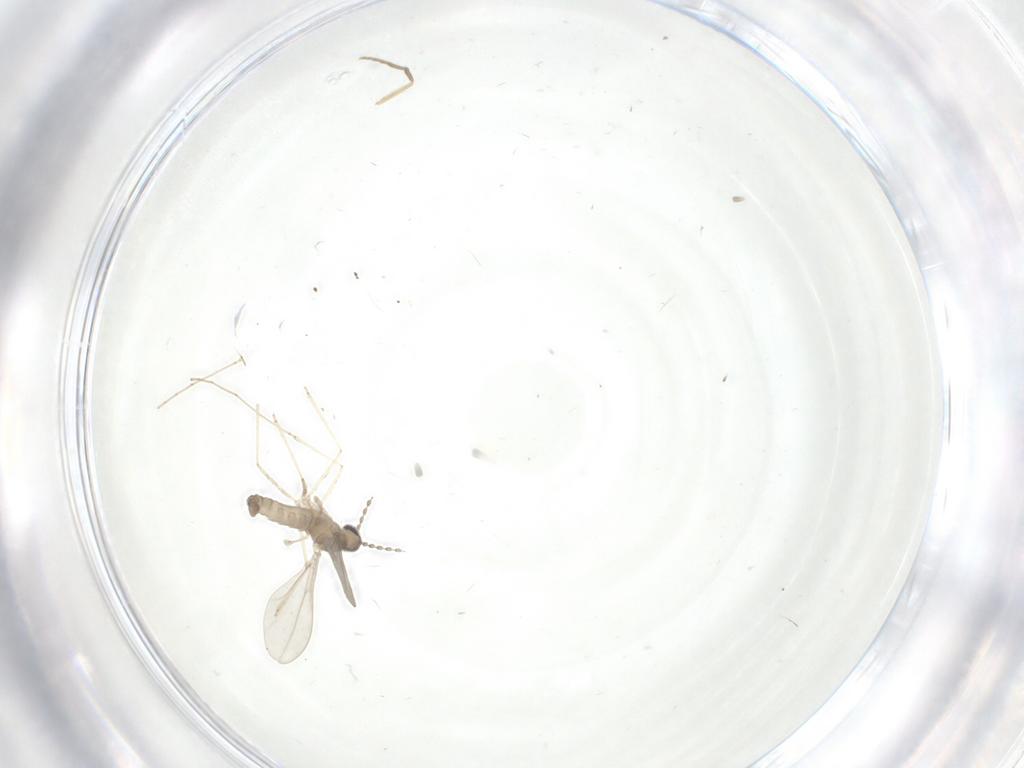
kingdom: Animalia
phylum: Arthropoda
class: Insecta
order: Diptera
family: Cecidomyiidae
